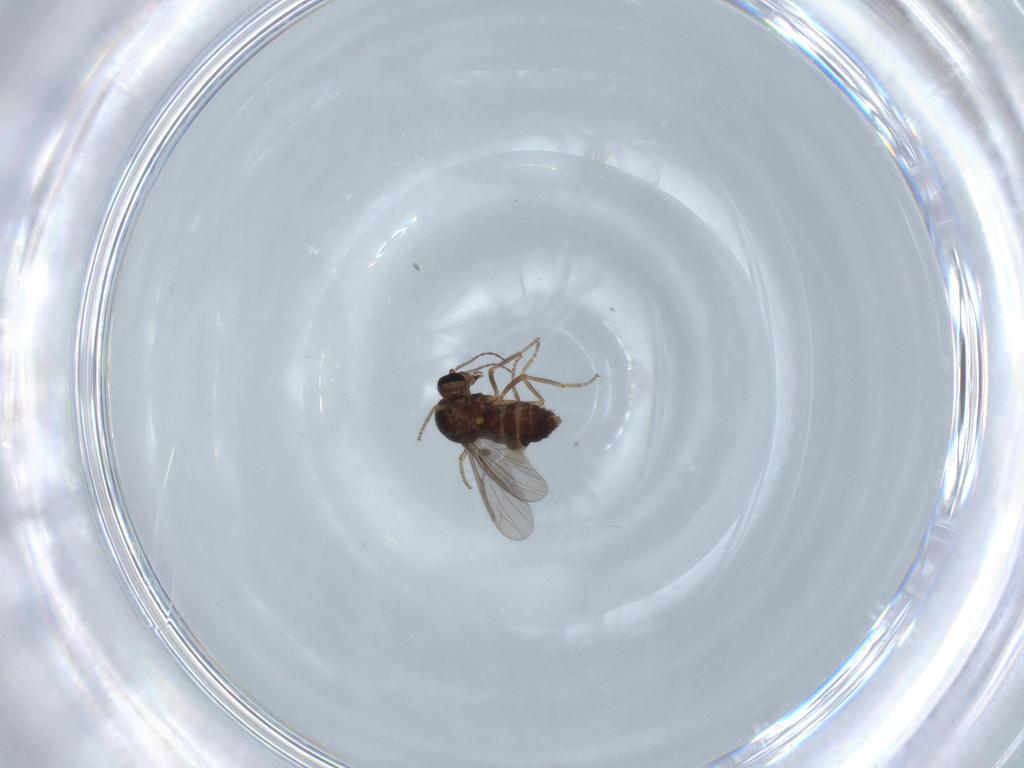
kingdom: Animalia
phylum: Arthropoda
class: Insecta
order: Diptera
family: Ceratopogonidae
